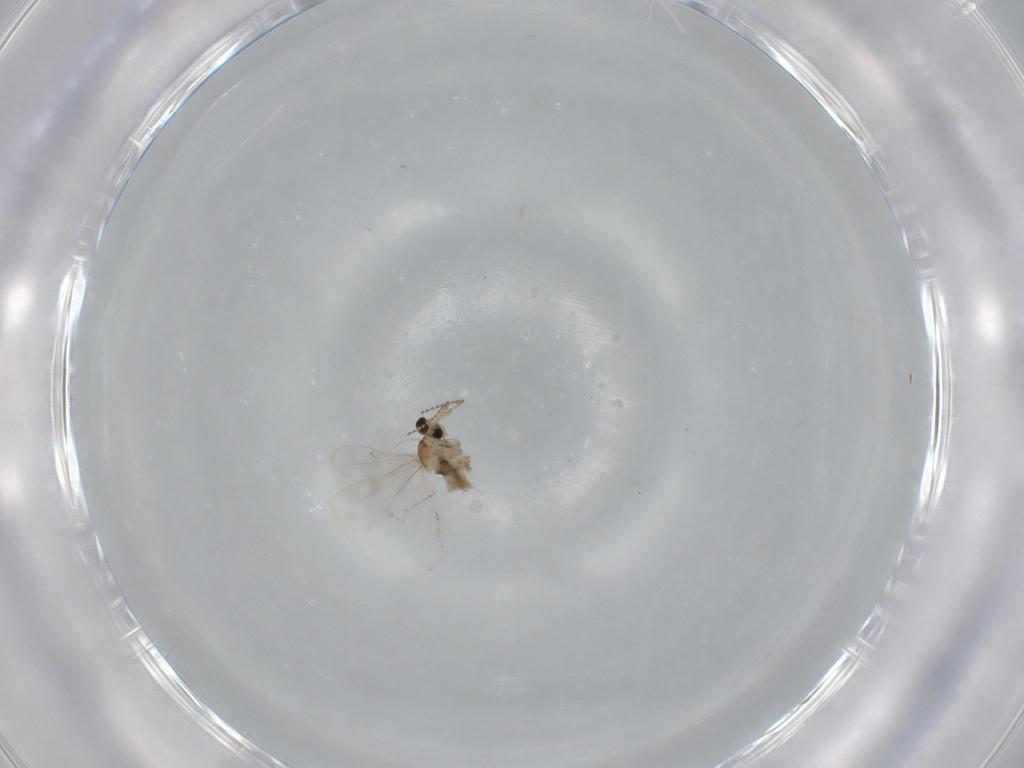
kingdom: Animalia
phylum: Arthropoda
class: Insecta
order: Diptera
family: Cecidomyiidae
